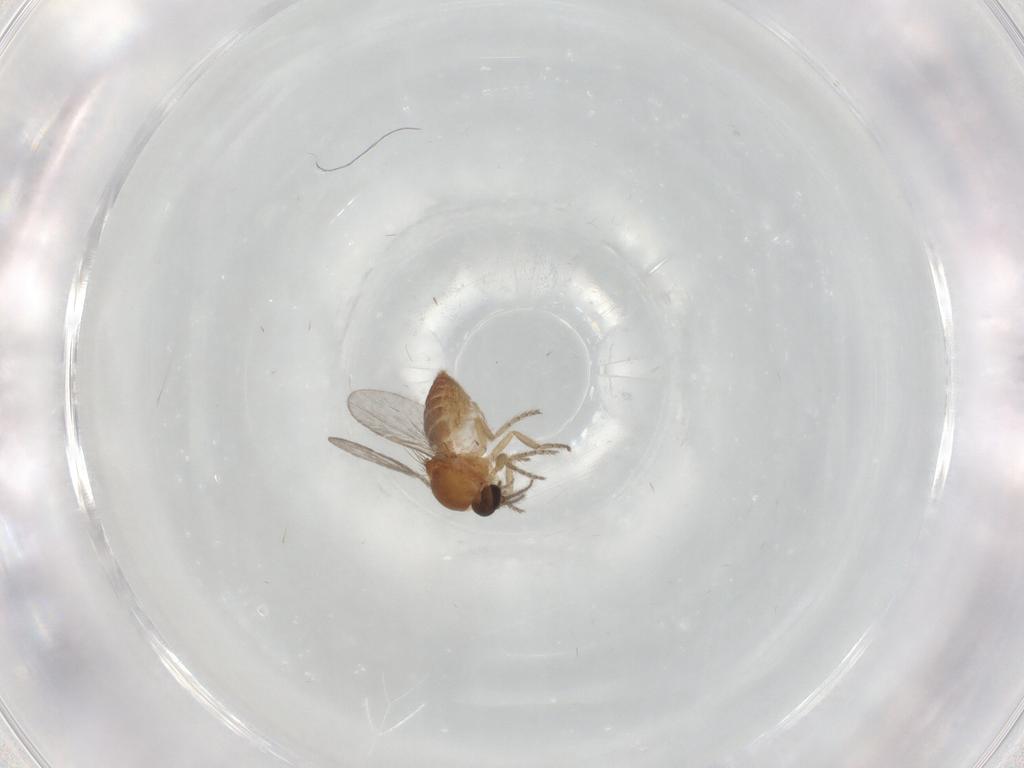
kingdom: Animalia
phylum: Arthropoda
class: Insecta
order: Diptera
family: Ceratopogonidae
